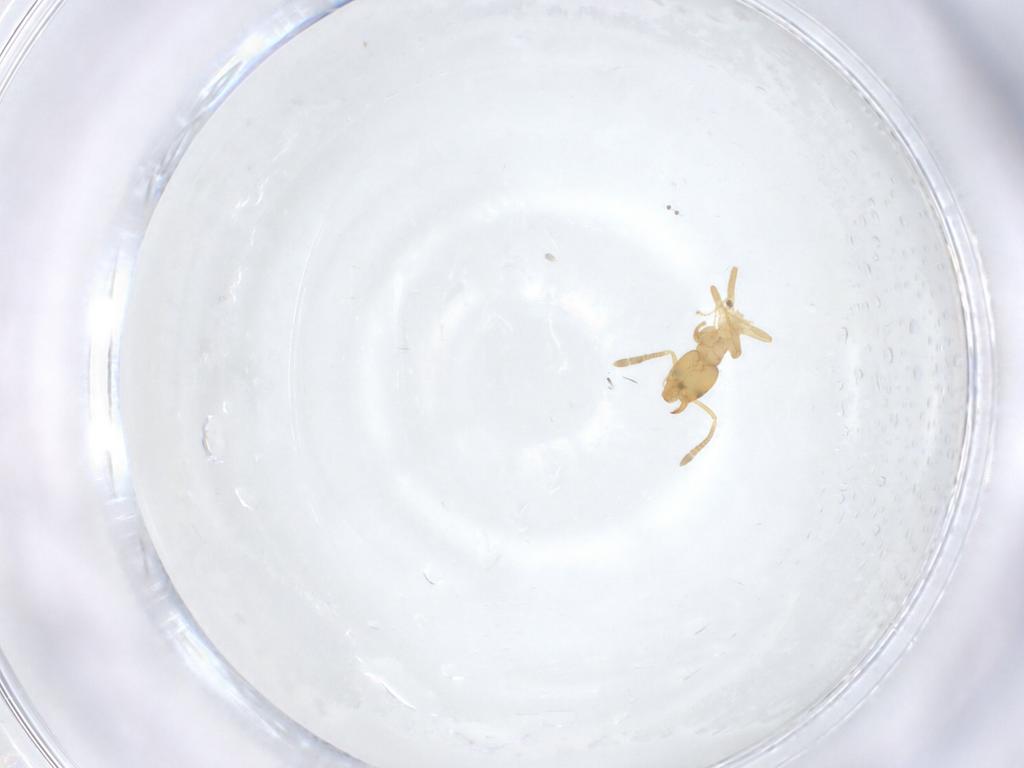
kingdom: Animalia
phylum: Arthropoda
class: Insecta
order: Hymenoptera
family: Formicidae
